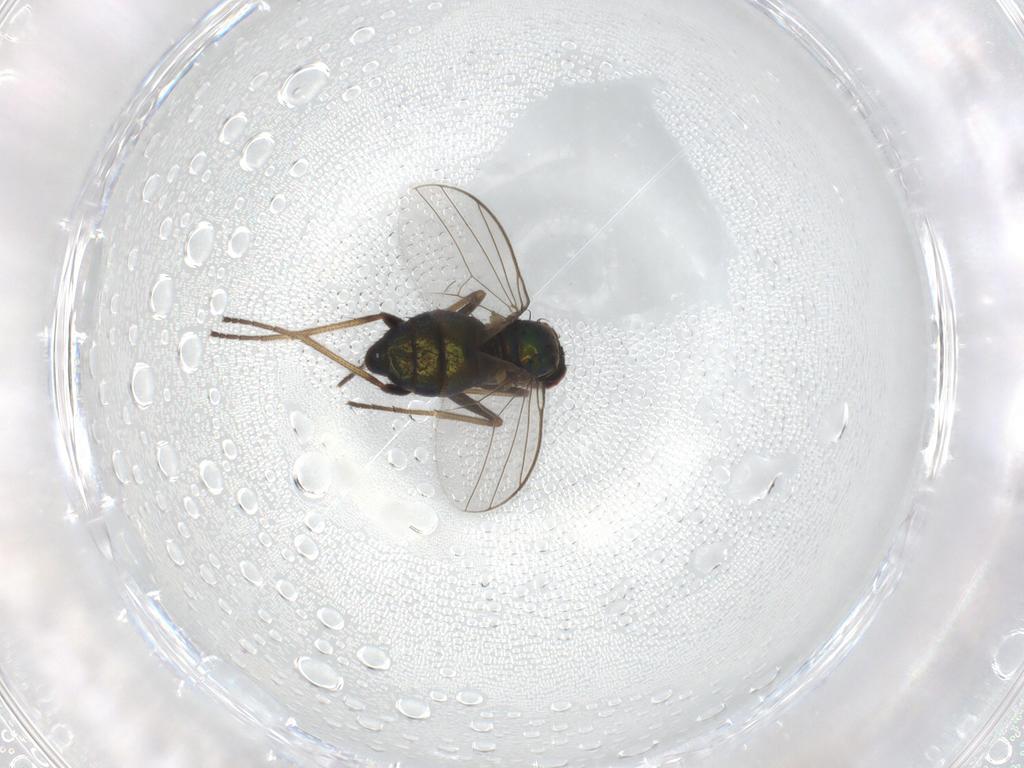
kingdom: Animalia
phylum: Arthropoda
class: Insecta
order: Diptera
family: Dolichopodidae
